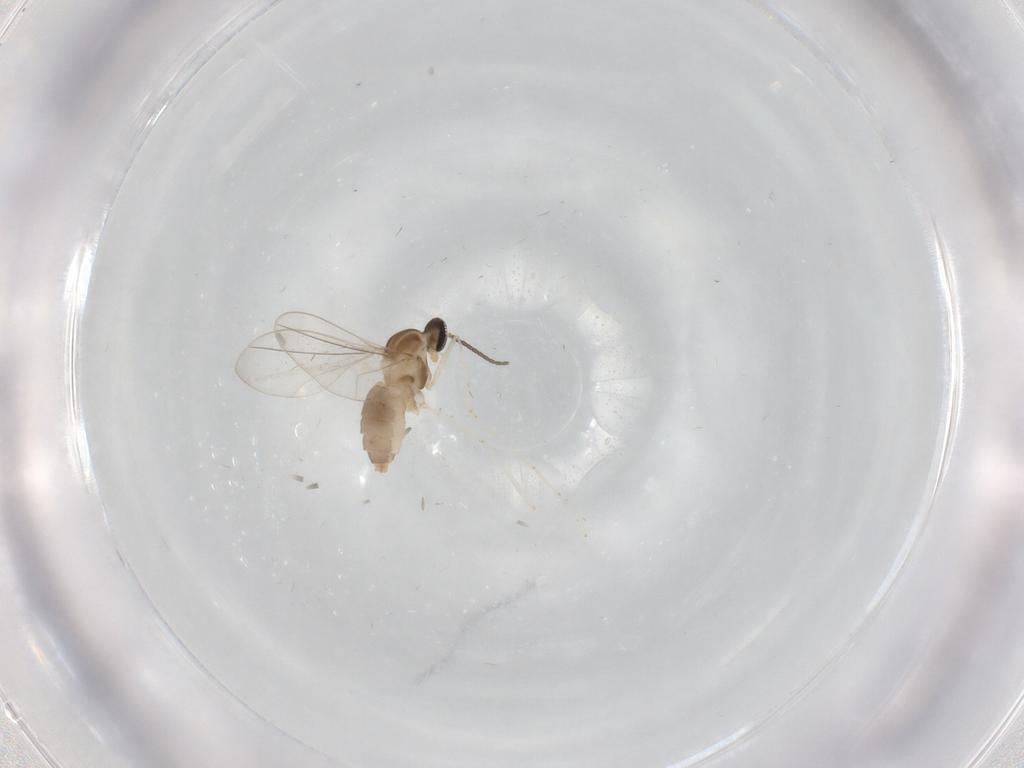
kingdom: Animalia
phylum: Arthropoda
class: Insecta
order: Diptera
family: Cecidomyiidae
